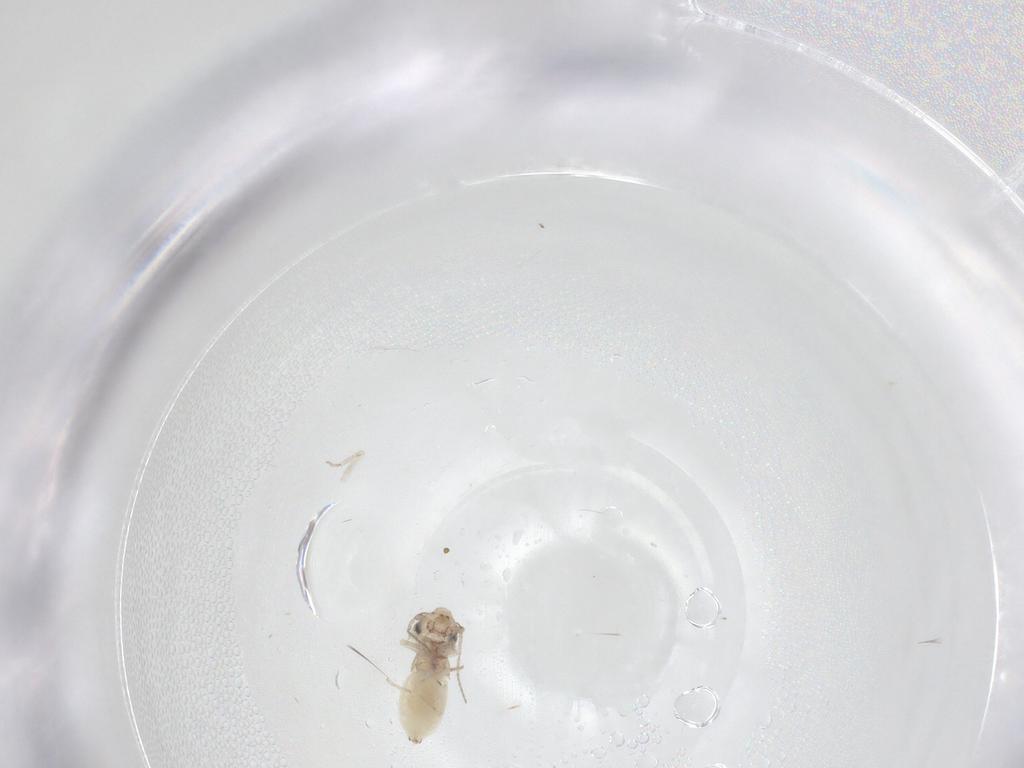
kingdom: Animalia
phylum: Arthropoda
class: Insecta
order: Psocodea
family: Lepidopsocidae
